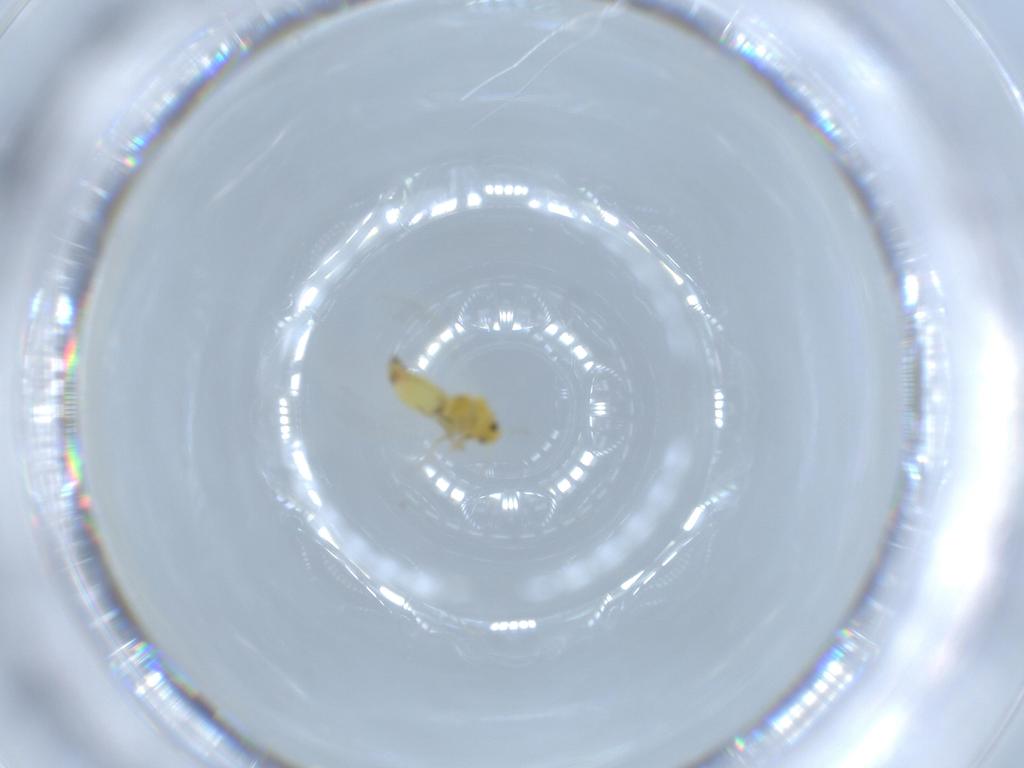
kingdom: Animalia
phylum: Arthropoda
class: Insecta
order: Hemiptera
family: Aleyrodidae
